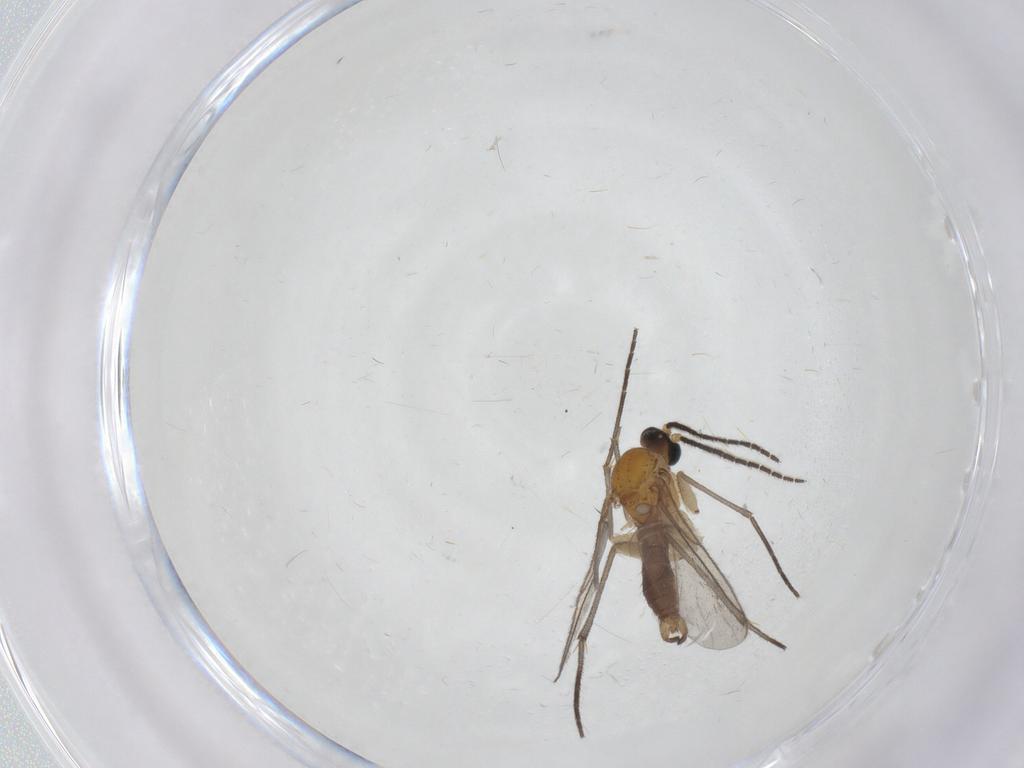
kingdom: Animalia
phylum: Arthropoda
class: Insecta
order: Diptera
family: Sciaridae
